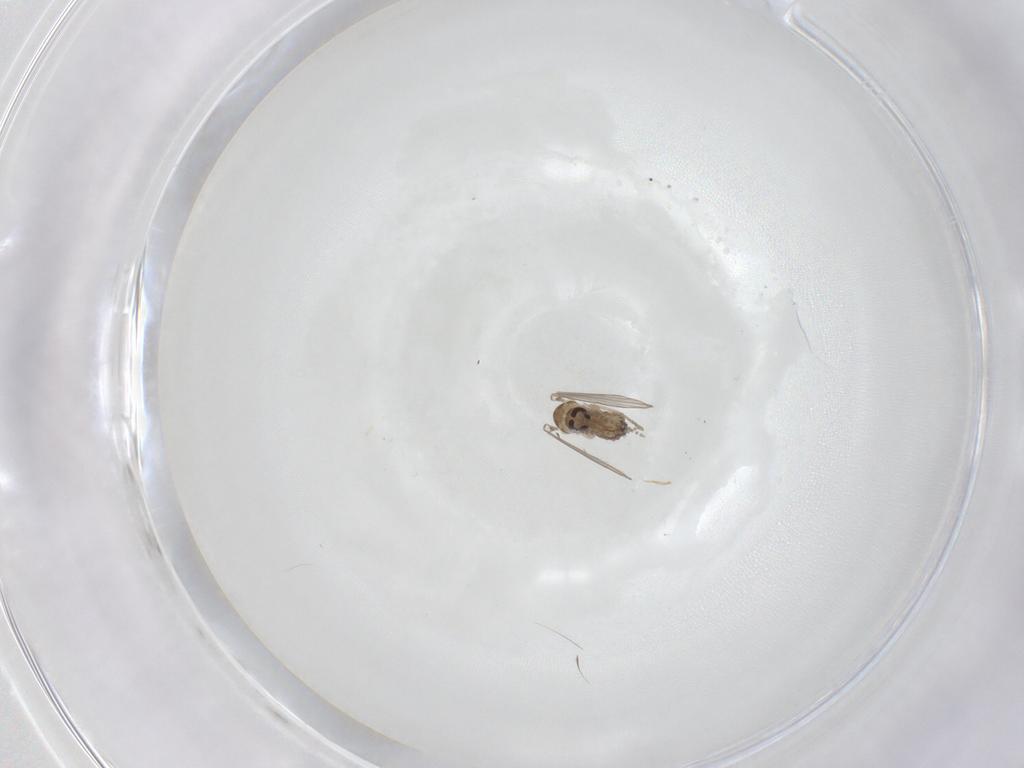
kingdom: Animalia
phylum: Arthropoda
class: Insecta
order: Diptera
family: Psychodidae
